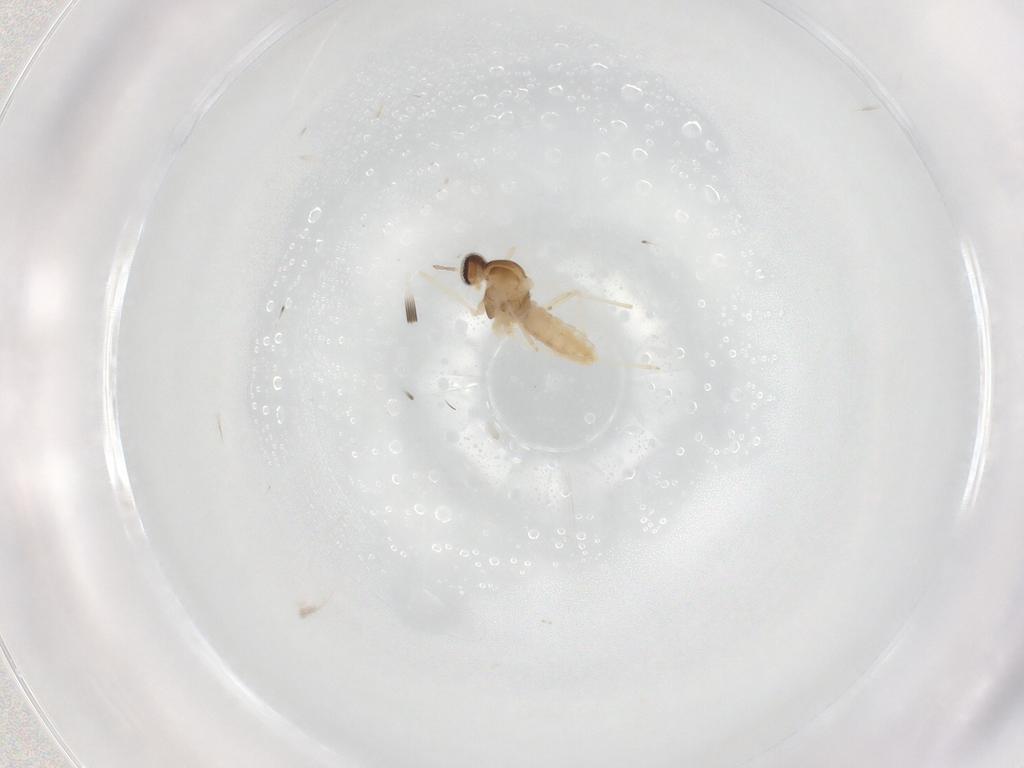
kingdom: Animalia
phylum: Arthropoda
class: Insecta
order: Diptera
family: Cecidomyiidae
